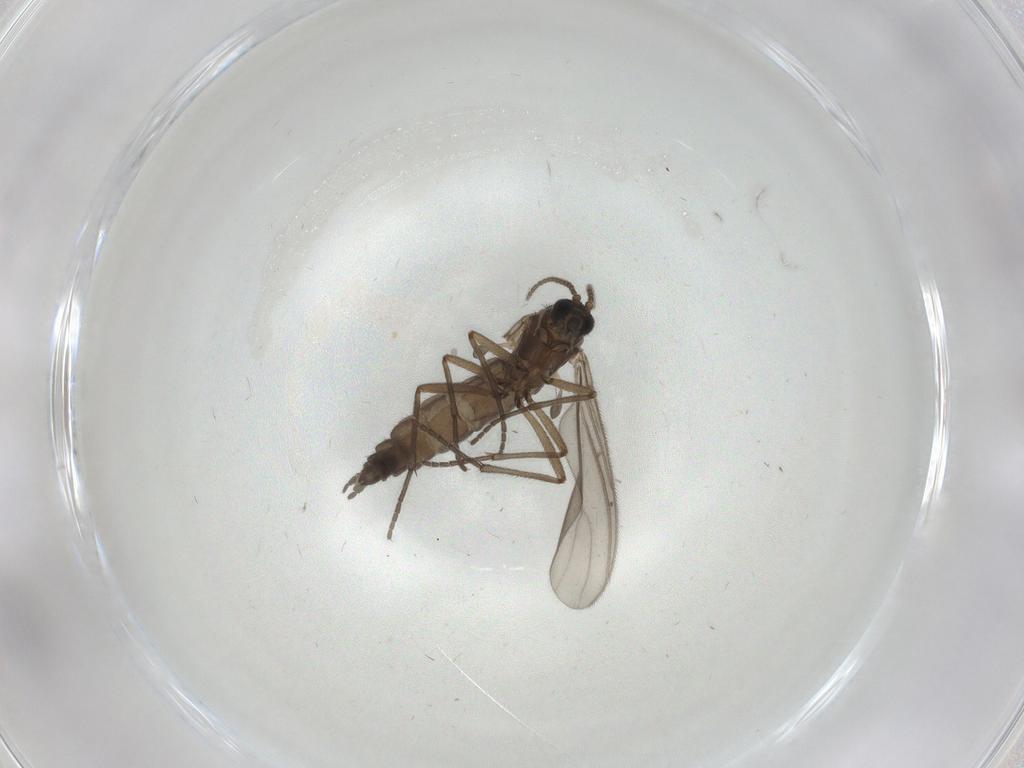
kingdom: Animalia
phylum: Arthropoda
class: Insecta
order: Diptera
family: Sciaridae
